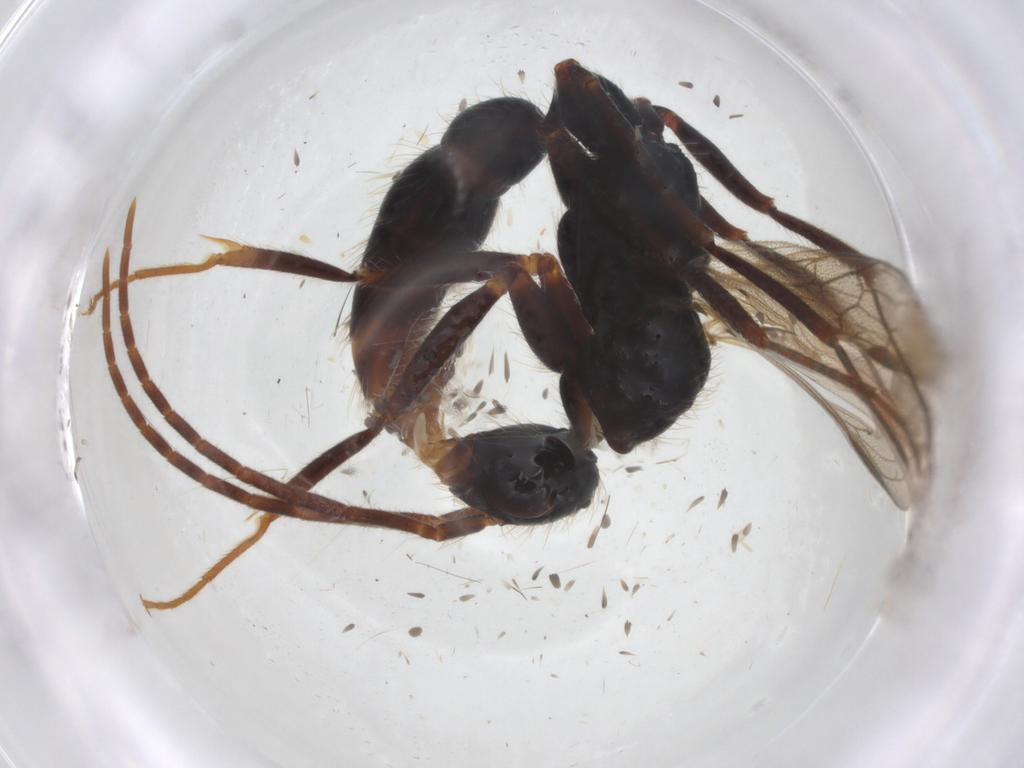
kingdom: Animalia
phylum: Arthropoda
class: Insecta
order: Hymenoptera
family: Formicidae
